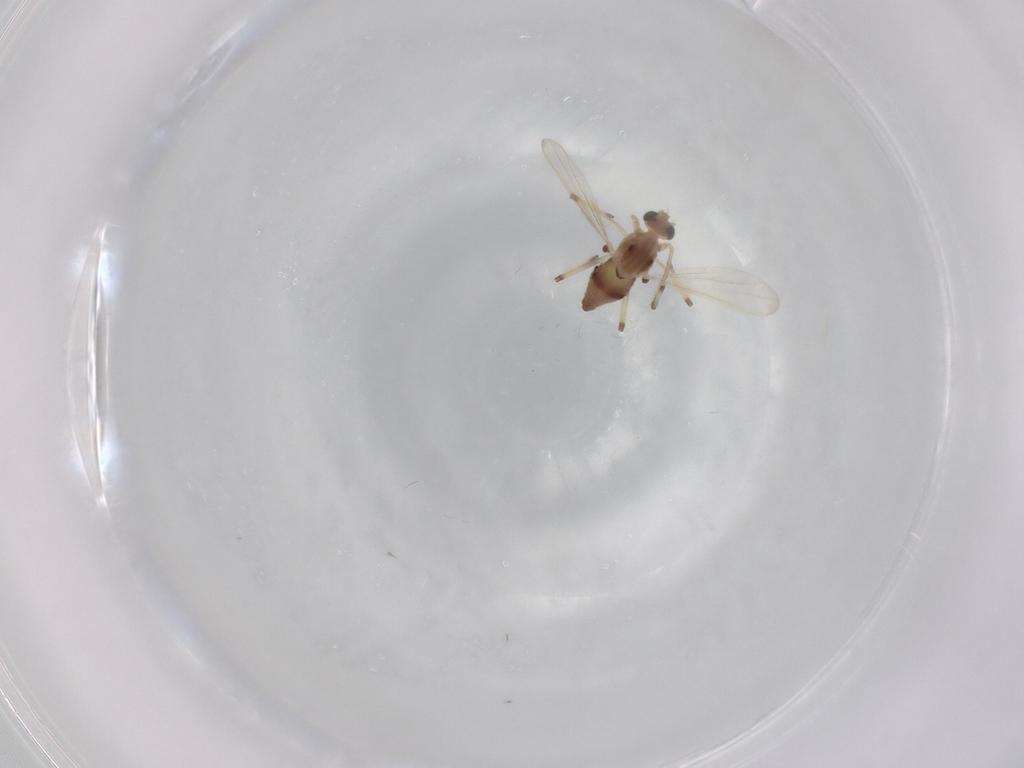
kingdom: Animalia
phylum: Arthropoda
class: Insecta
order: Diptera
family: Chironomidae
